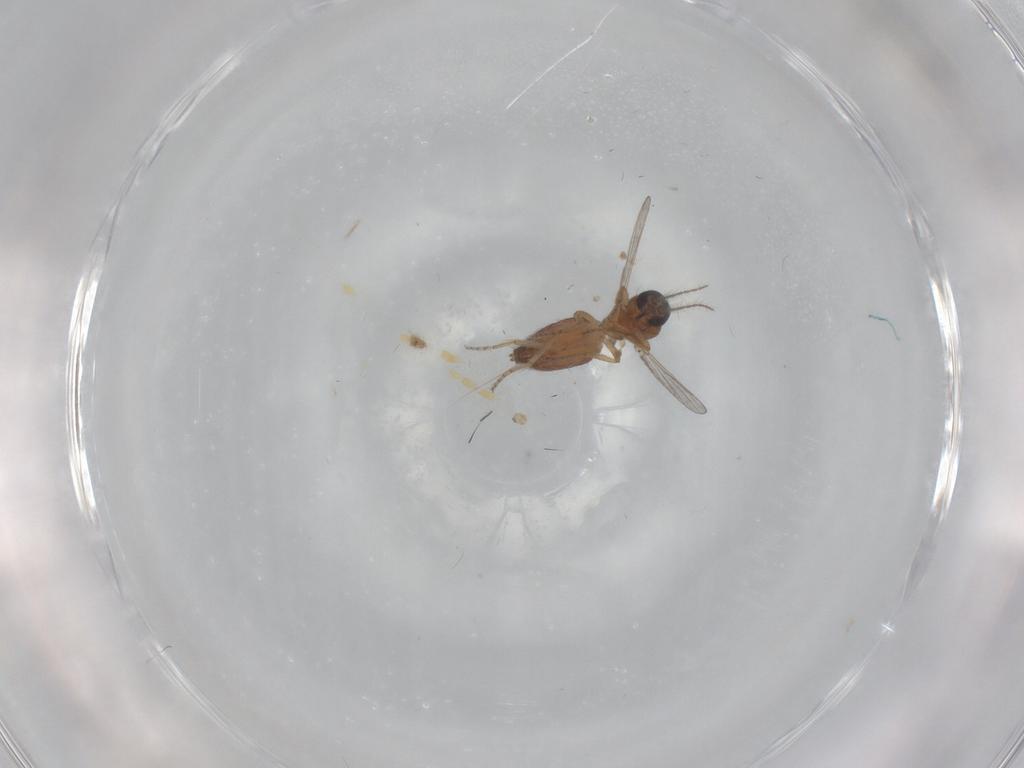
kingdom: Animalia
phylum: Arthropoda
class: Insecta
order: Diptera
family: Ceratopogonidae
